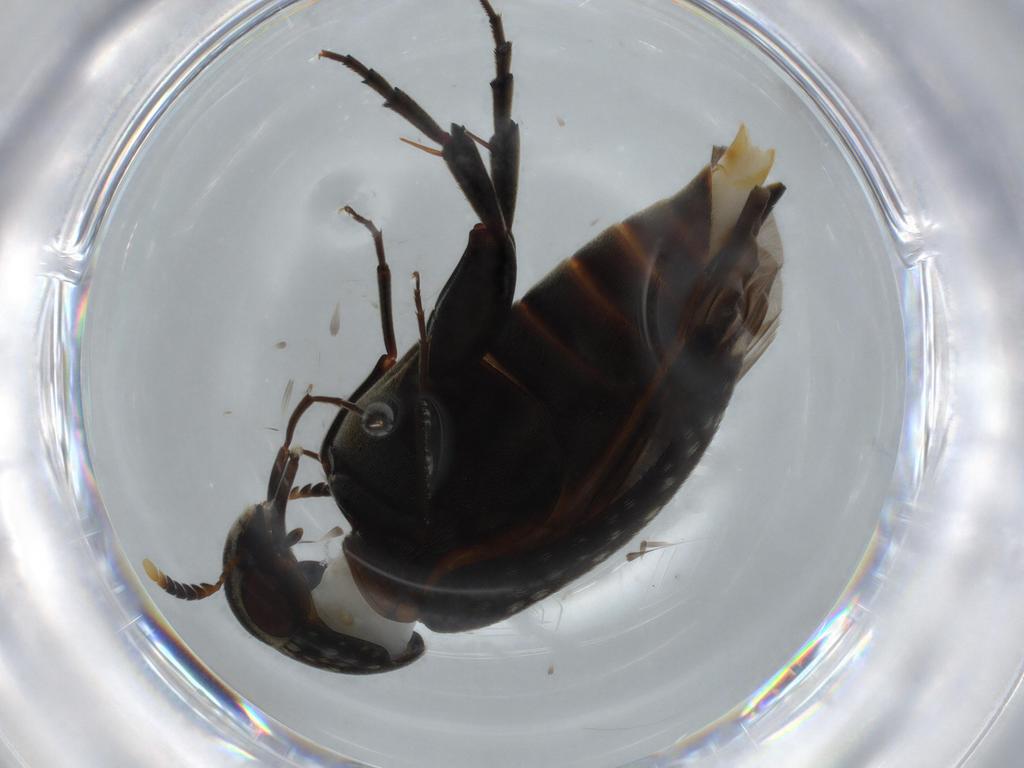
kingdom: Animalia
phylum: Arthropoda
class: Insecta
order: Coleoptera
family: Mordellidae
